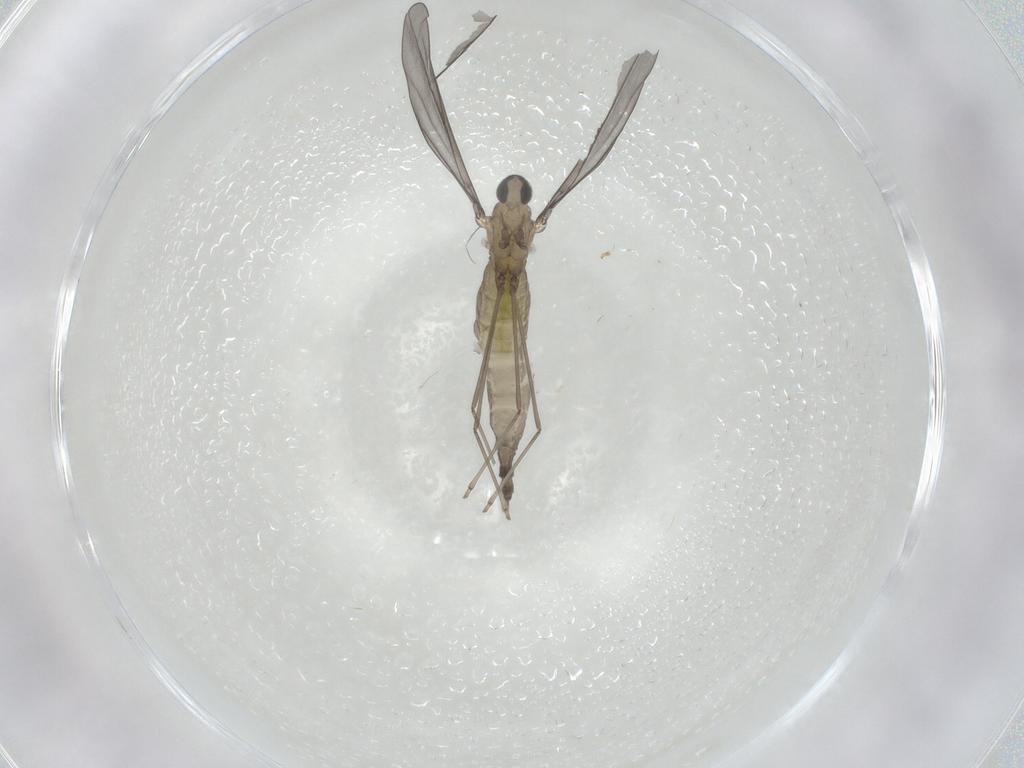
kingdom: Animalia
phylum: Arthropoda
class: Insecta
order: Diptera
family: Cecidomyiidae
